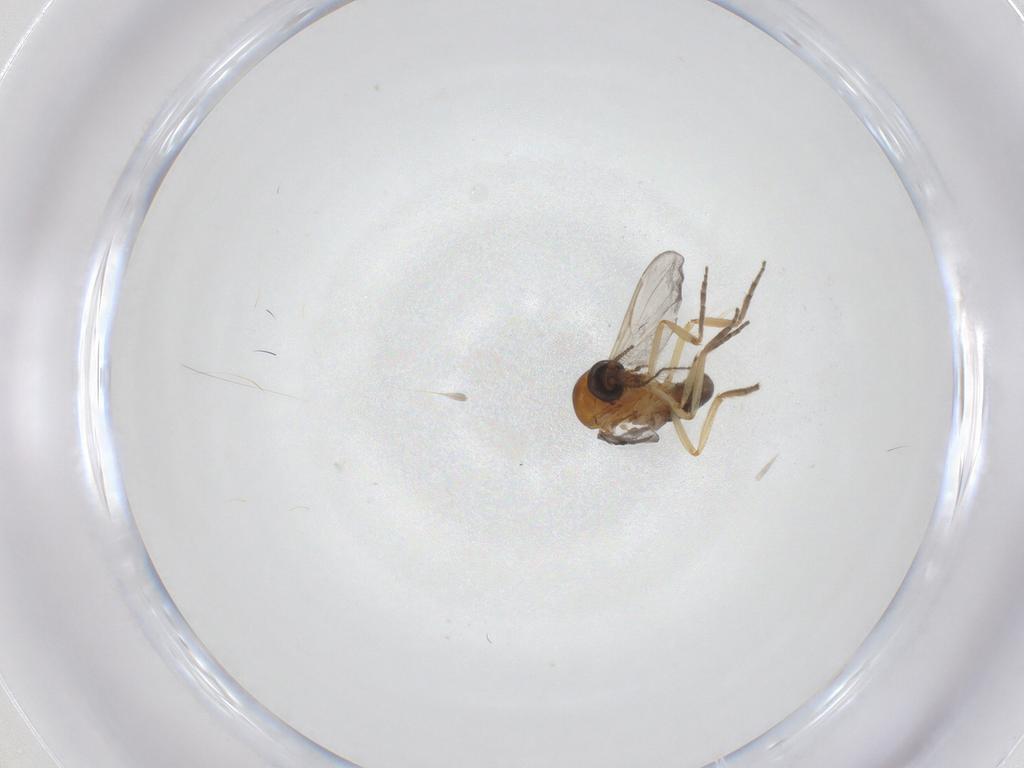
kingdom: Animalia
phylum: Arthropoda
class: Insecta
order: Diptera
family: Ceratopogonidae
